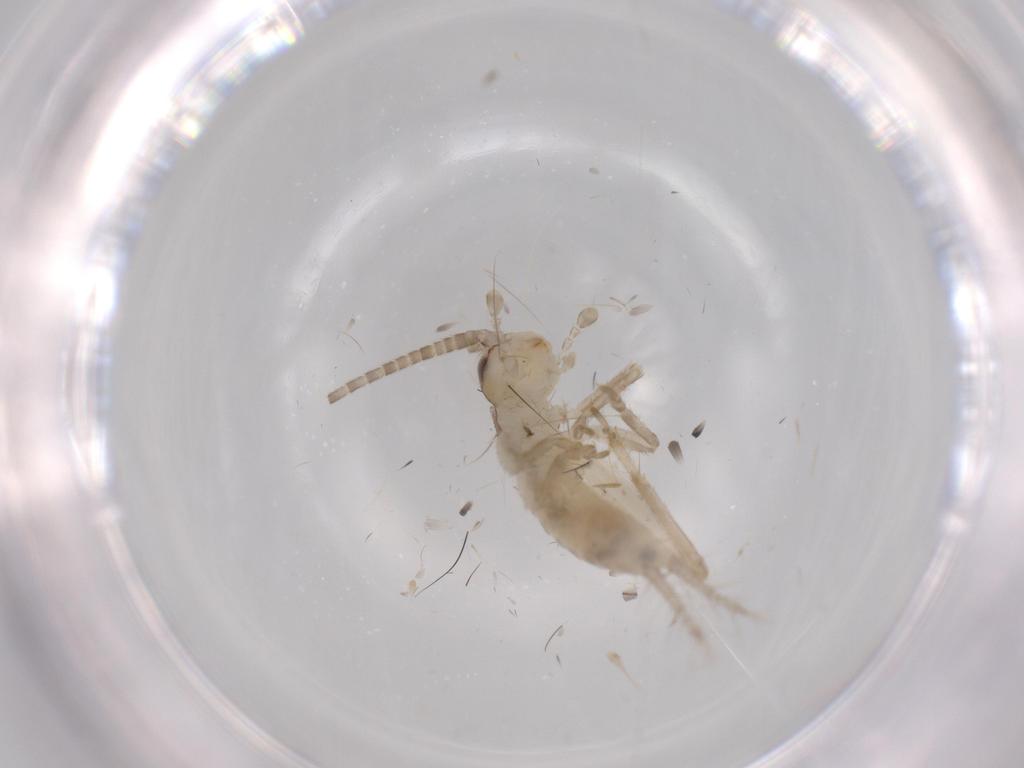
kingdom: Animalia
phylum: Arthropoda
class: Insecta
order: Orthoptera
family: Gryllidae
